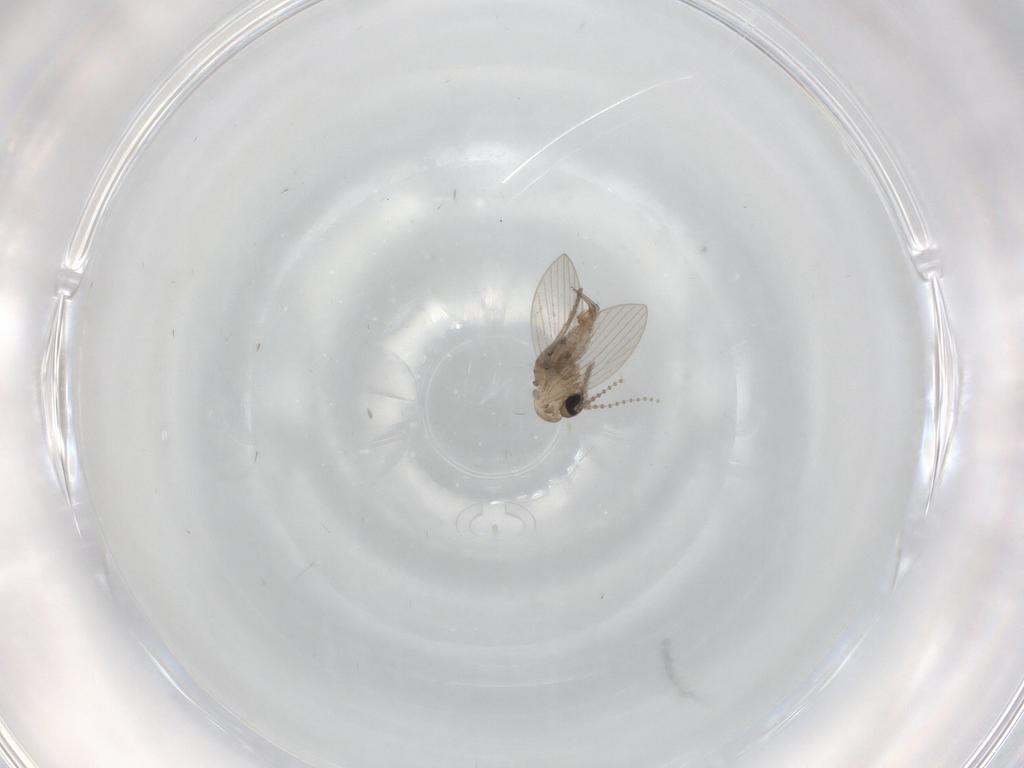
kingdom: Animalia
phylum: Arthropoda
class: Insecta
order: Diptera
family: Psychodidae
